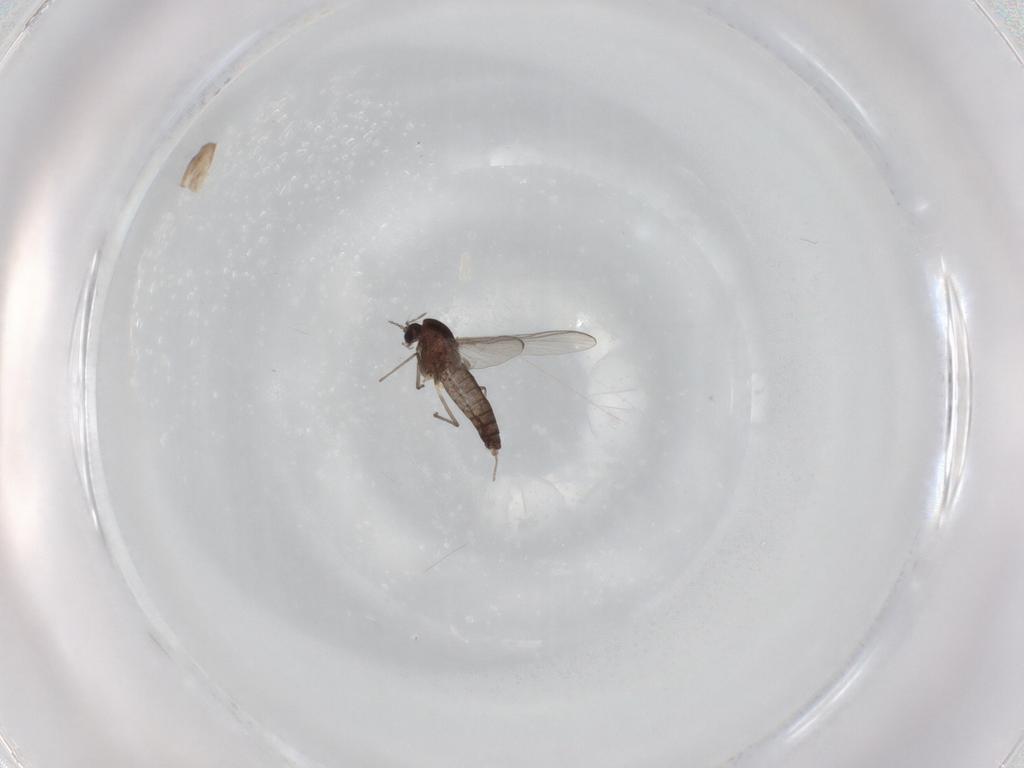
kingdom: Animalia
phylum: Arthropoda
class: Insecta
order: Diptera
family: Chironomidae
